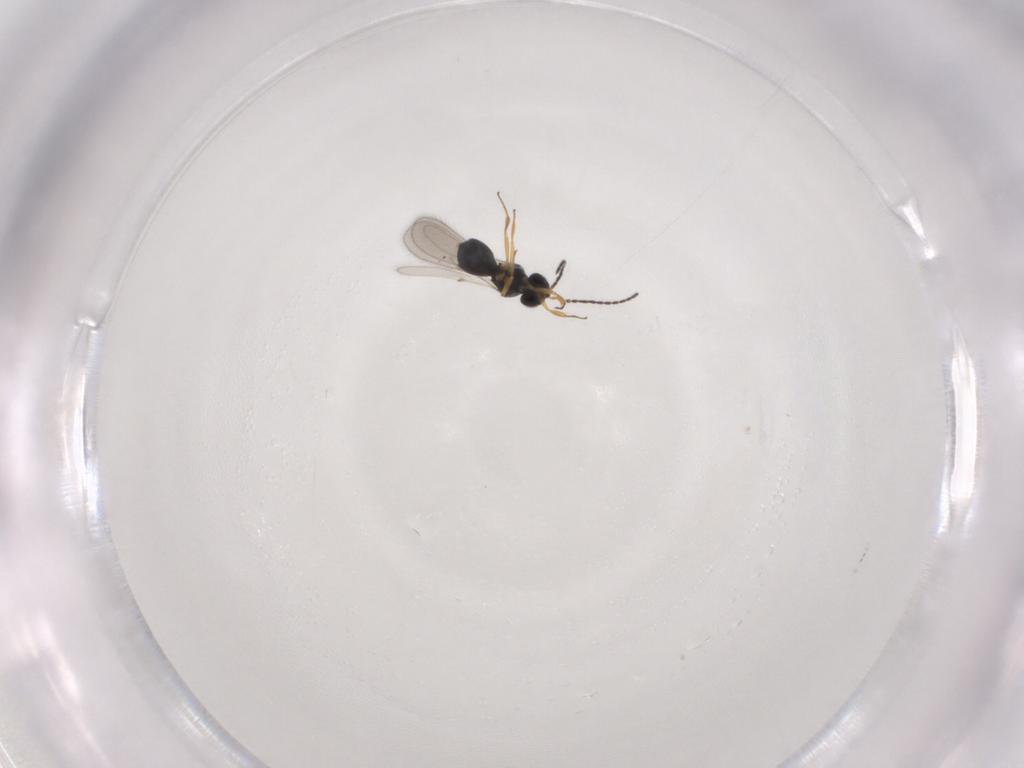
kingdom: Animalia
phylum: Arthropoda
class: Insecta
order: Hymenoptera
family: Scelionidae
